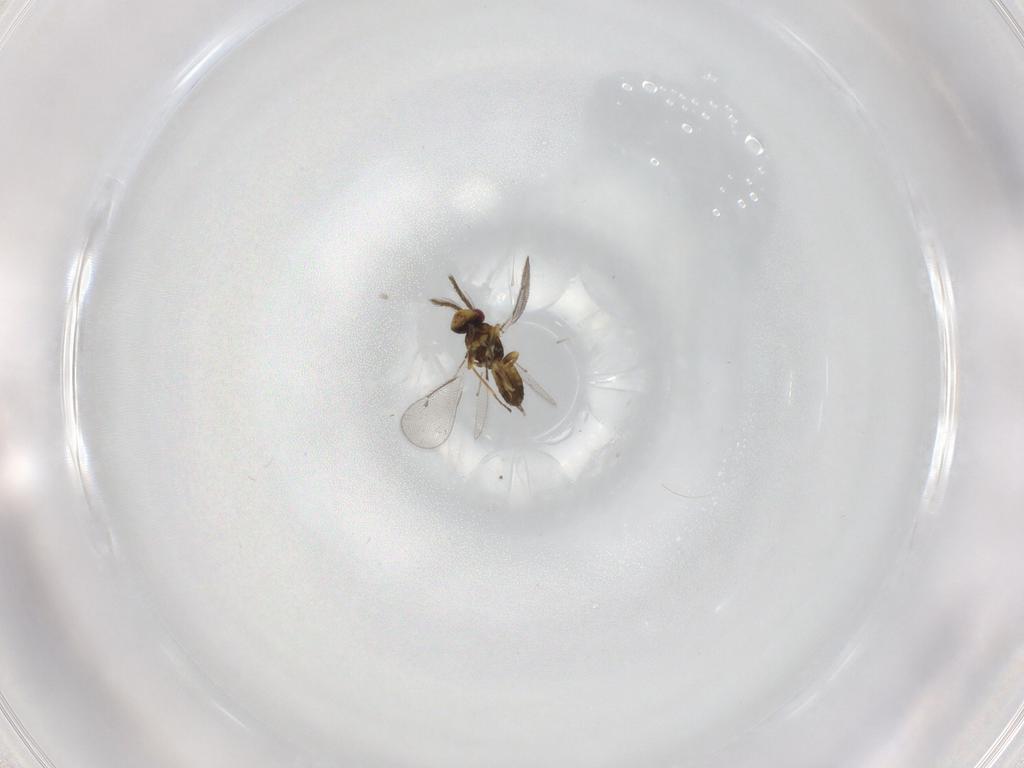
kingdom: Animalia
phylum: Arthropoda
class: Insecta
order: Hymenoptera
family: Eulophidae
